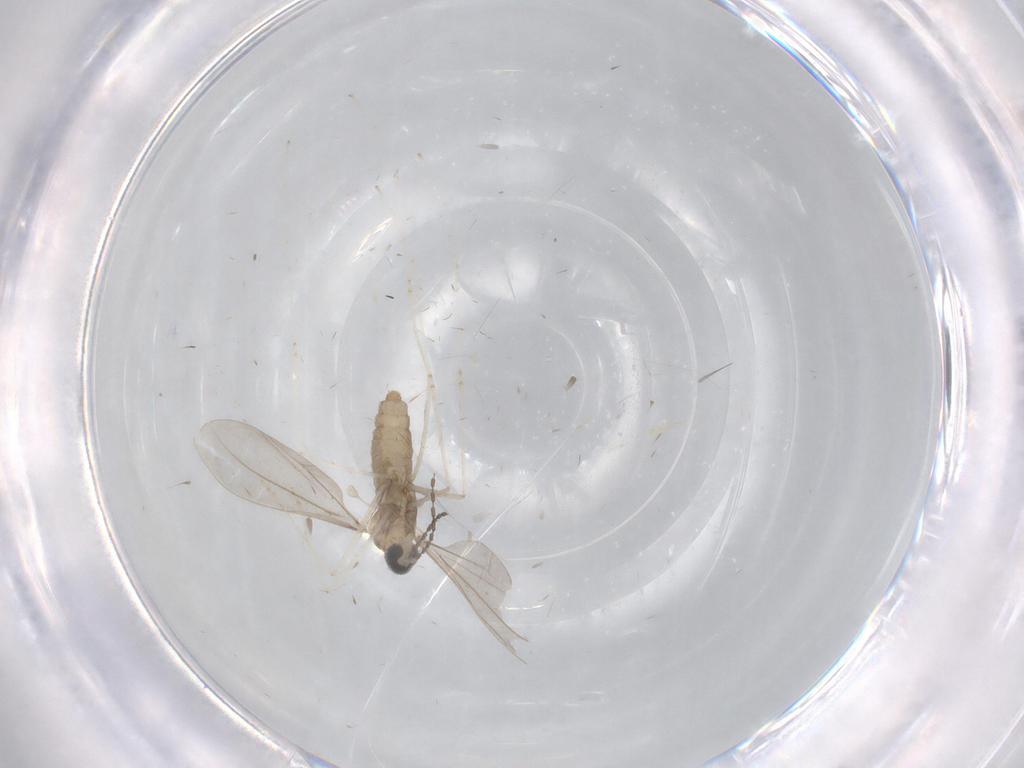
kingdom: Animalia
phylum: Arthropoda
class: Insecta
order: Diptera
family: Cecidomyiidae
